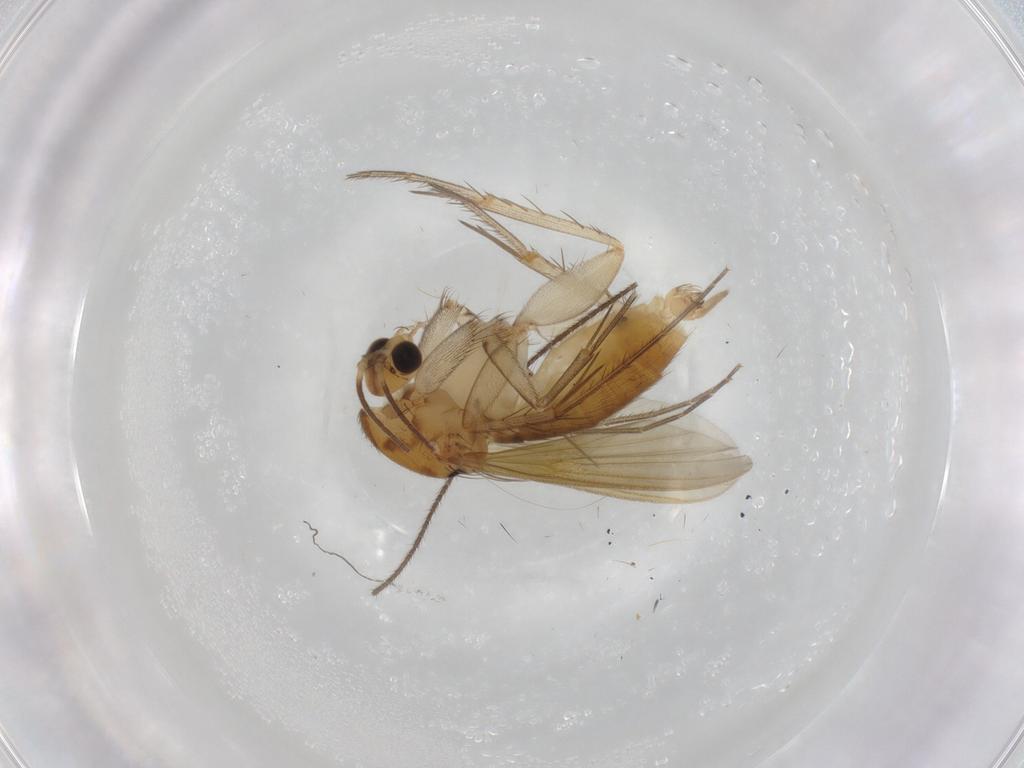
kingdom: Animalia
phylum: Arthropoda
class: Insecta
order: Diptera
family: Mycetophilidae
